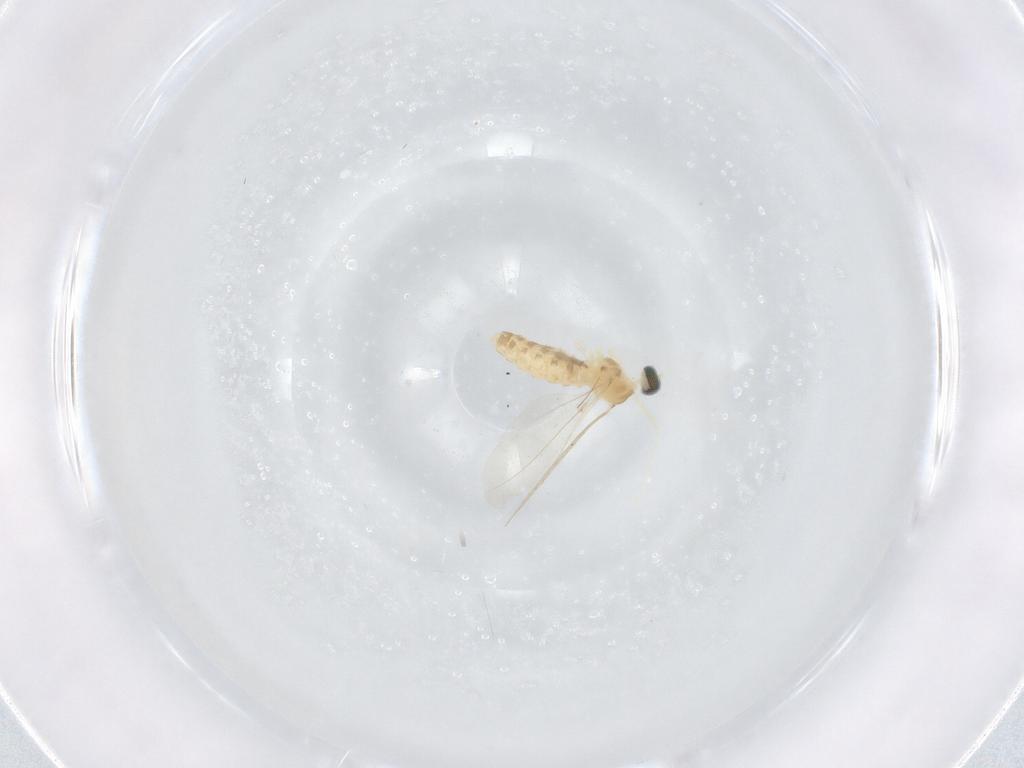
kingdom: Animalia
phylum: Arthropoda
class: Insecta
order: Diptera
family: Cecidomyiidae
